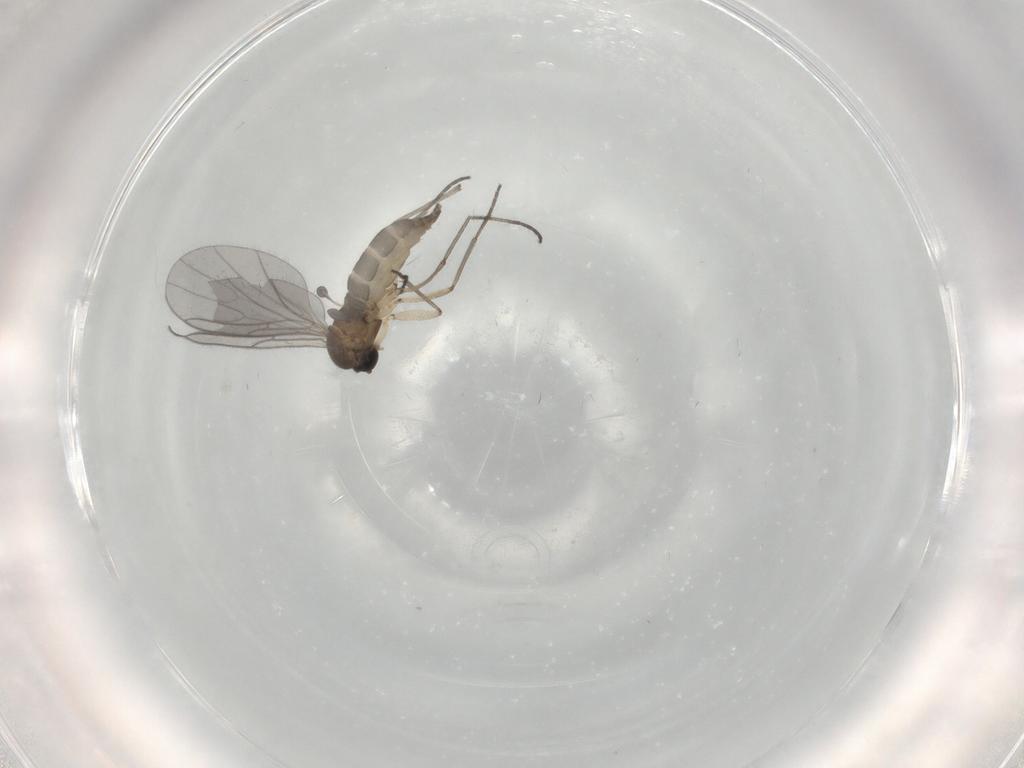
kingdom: Animalia
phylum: Arthropoda
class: Insecta
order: Diptera
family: Sciaridae
